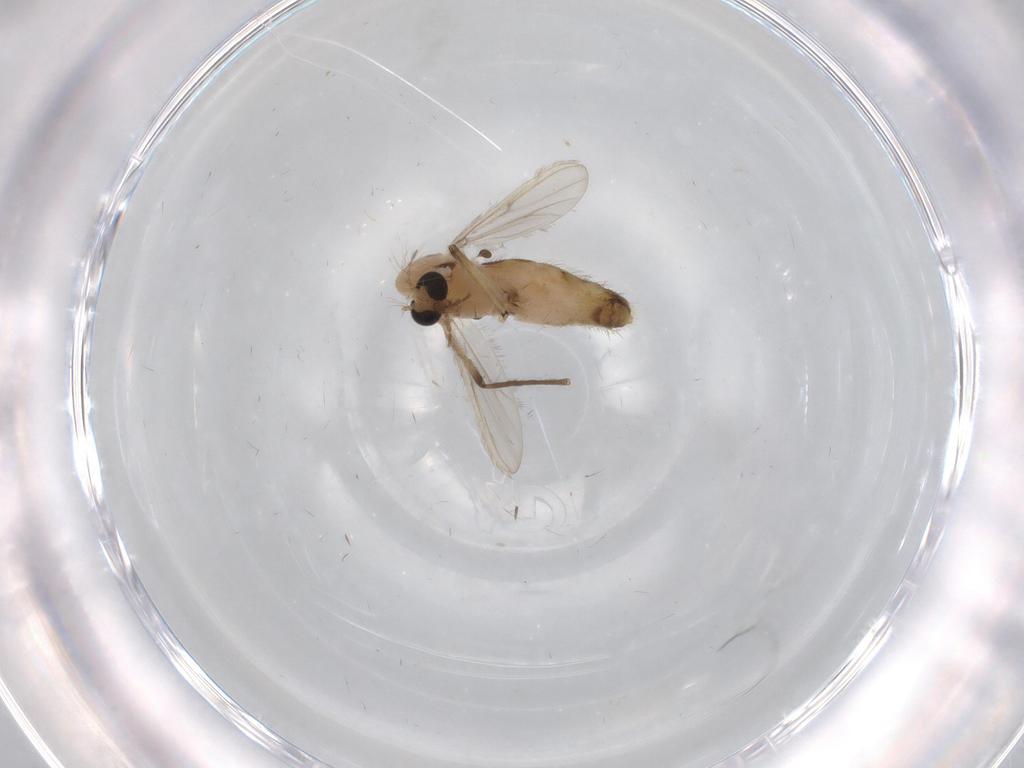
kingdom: Animalia
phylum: Arthropoda
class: Insecta
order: Diptera
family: Chironomidae
